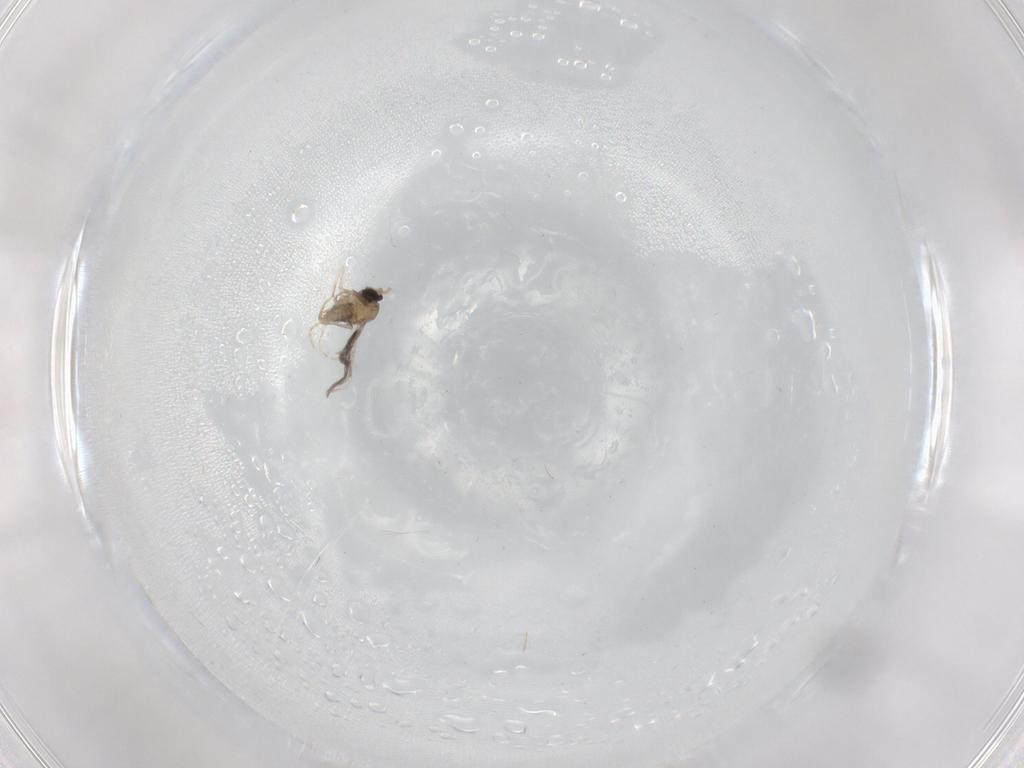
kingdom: Animalia
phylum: Arthropoda
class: Insecta
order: Diptera
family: Cecidomyiidae
